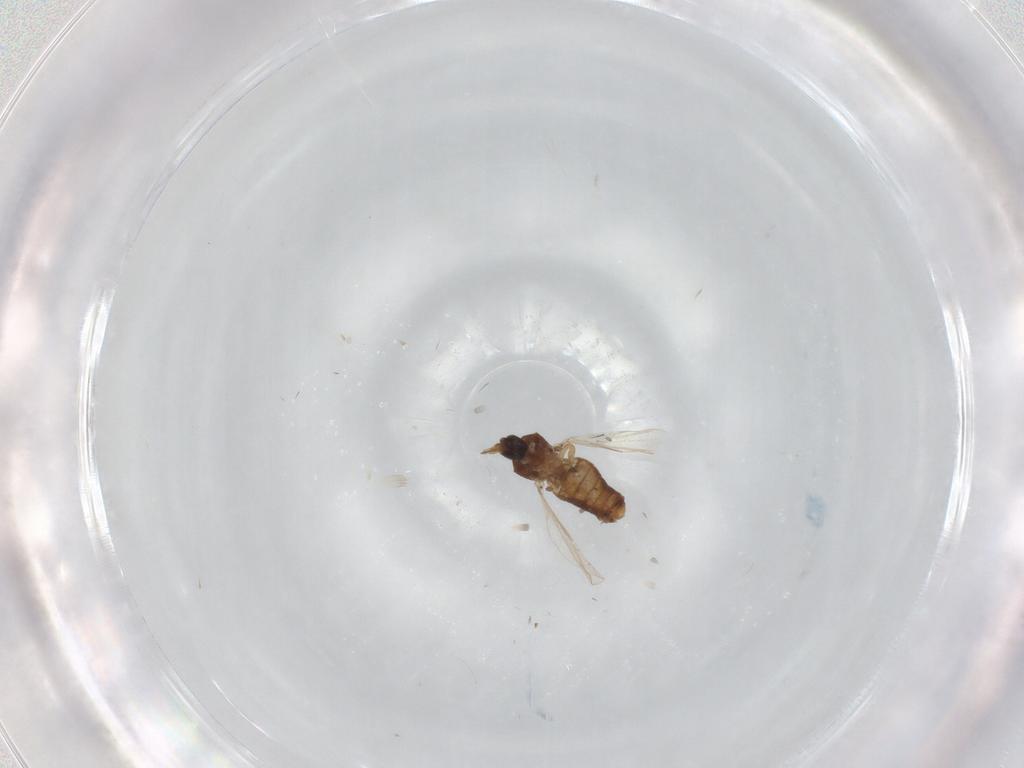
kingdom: Animalia
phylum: Arthropoda
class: Insecta
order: Diptera
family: Ceratopogonidae
